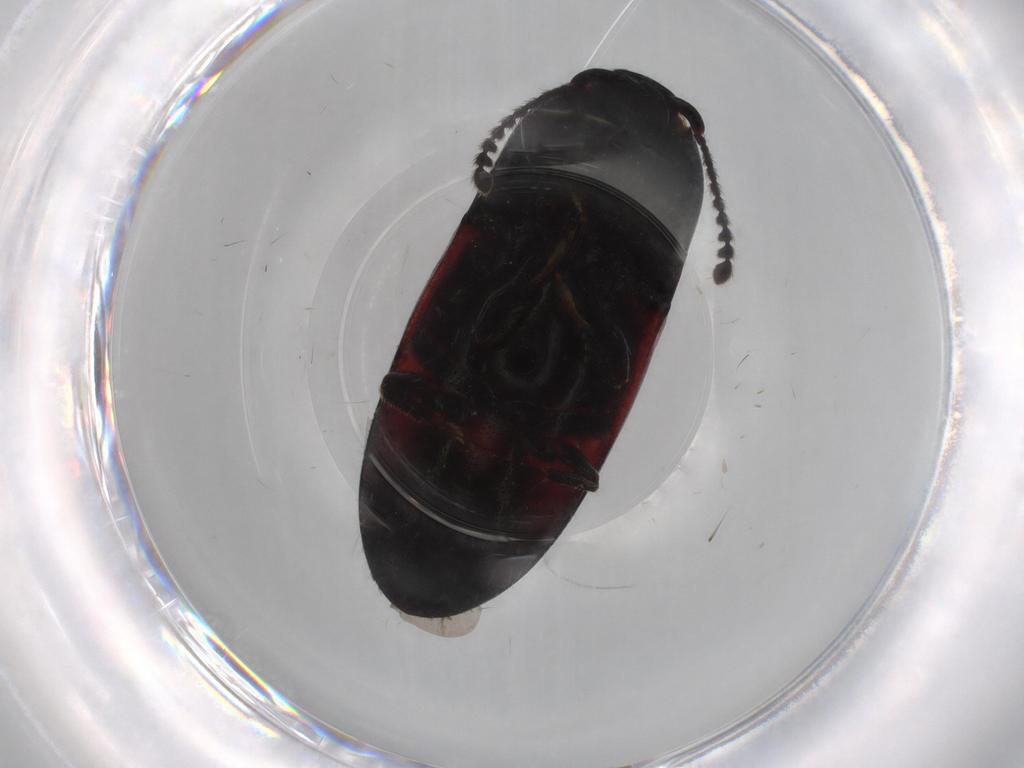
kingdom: Animalia
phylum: Arthropoda
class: Insecta
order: Coleoptera
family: Elateridae
